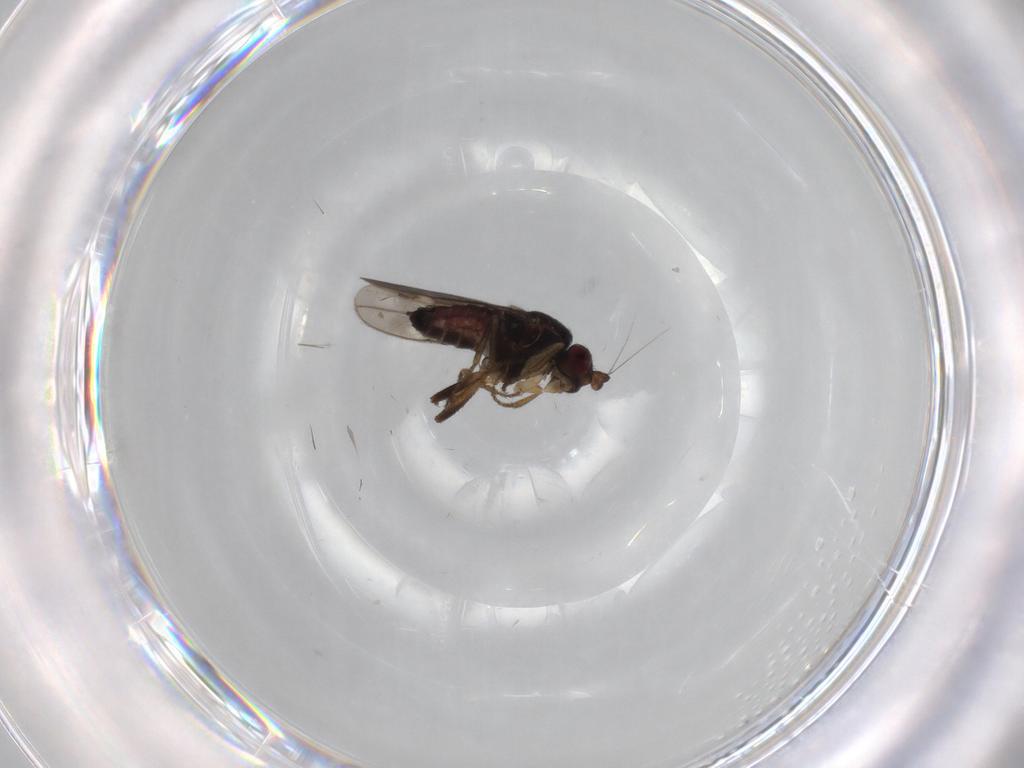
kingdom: Animalia
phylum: Arthropoda
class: Insecta
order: Diptera
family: Sphaeroceridae
